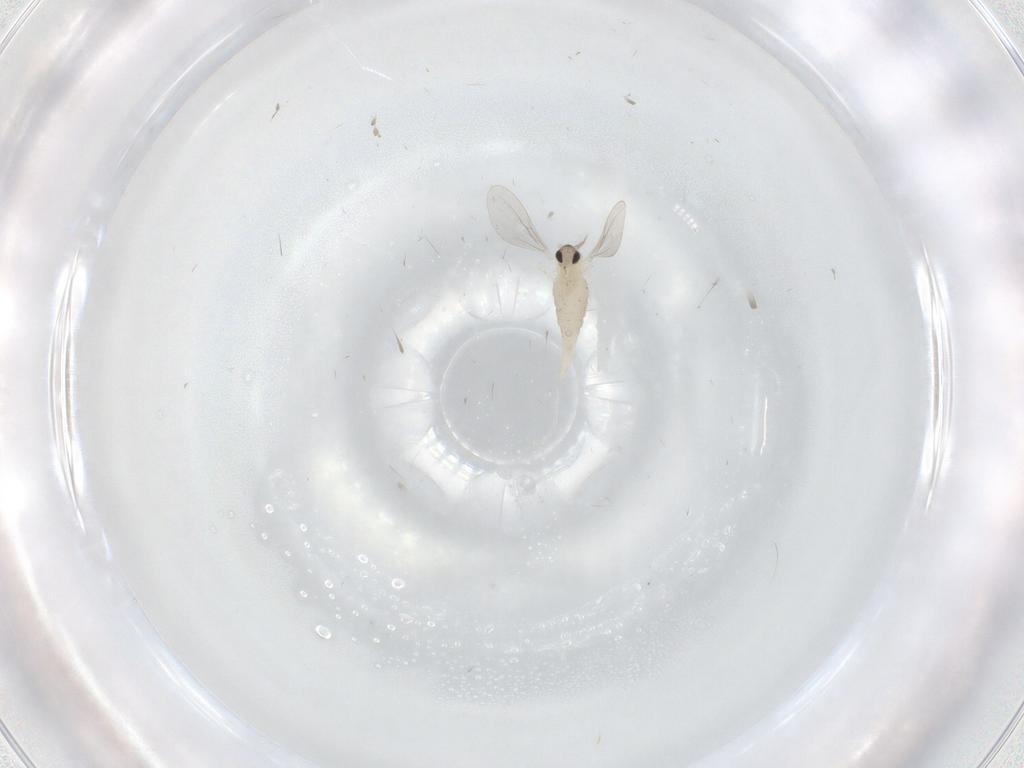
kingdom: Animalia
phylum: Arthropoda
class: Insecta
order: Diptera
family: Cecidomyiidae
